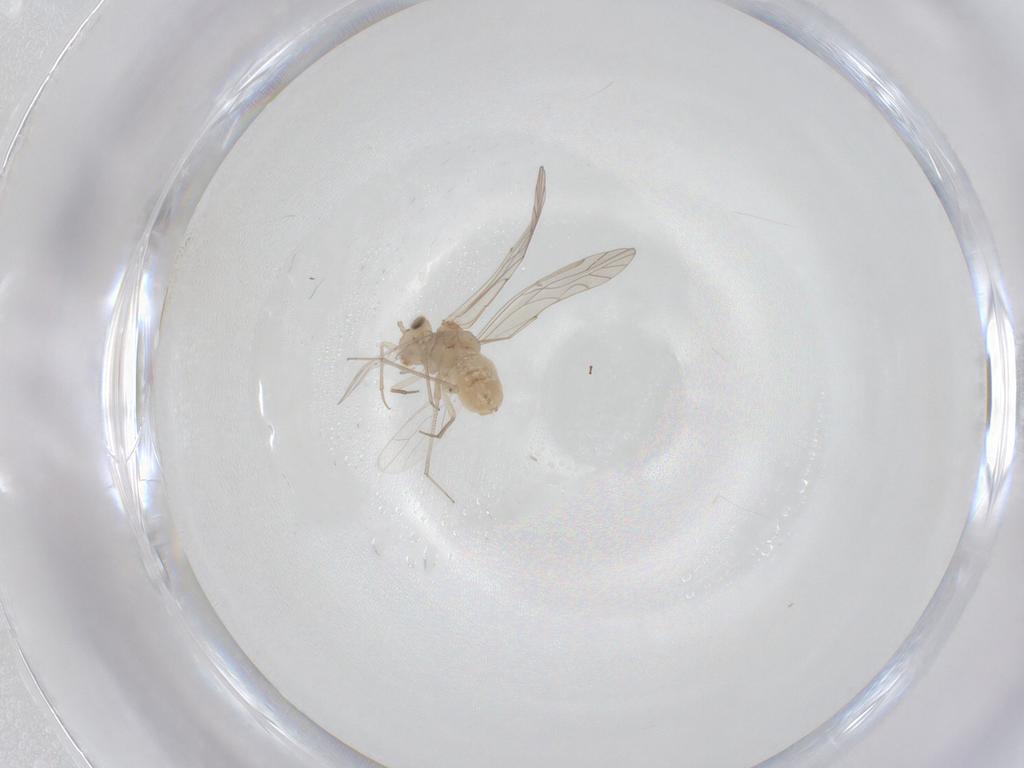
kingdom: Animalia
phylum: Arthropoda
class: Insecta
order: Psocodea
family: Lachesillidae
